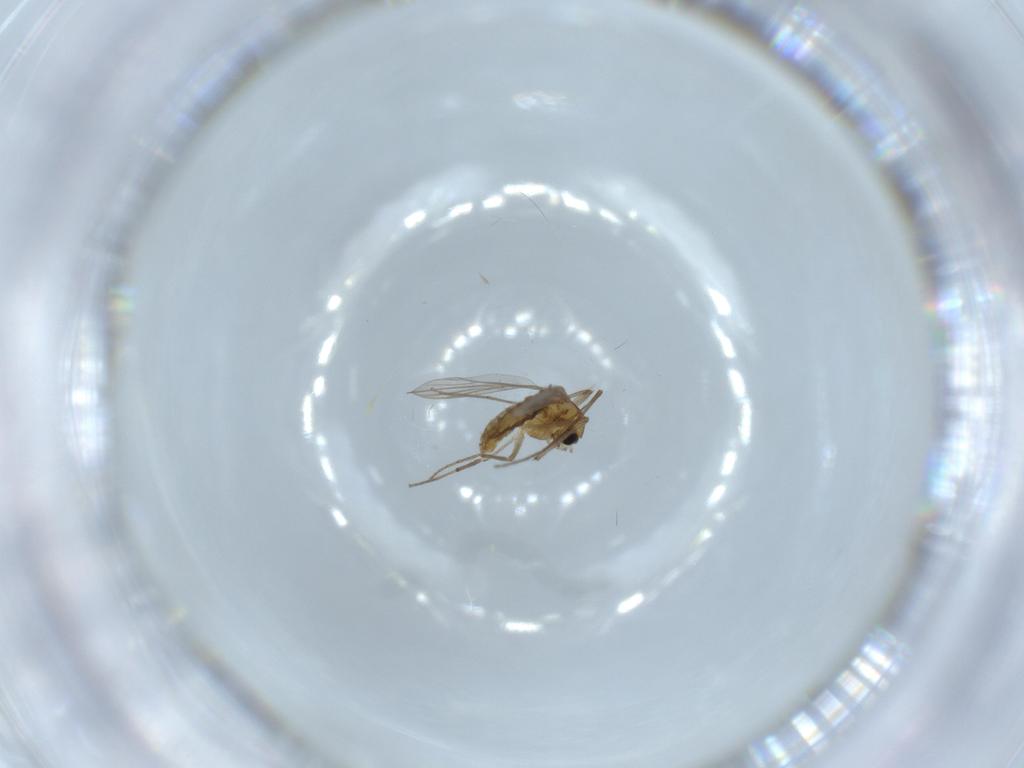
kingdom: Animalia
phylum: Arthropoda
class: Insecta
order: Diptera
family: Chironomidae
